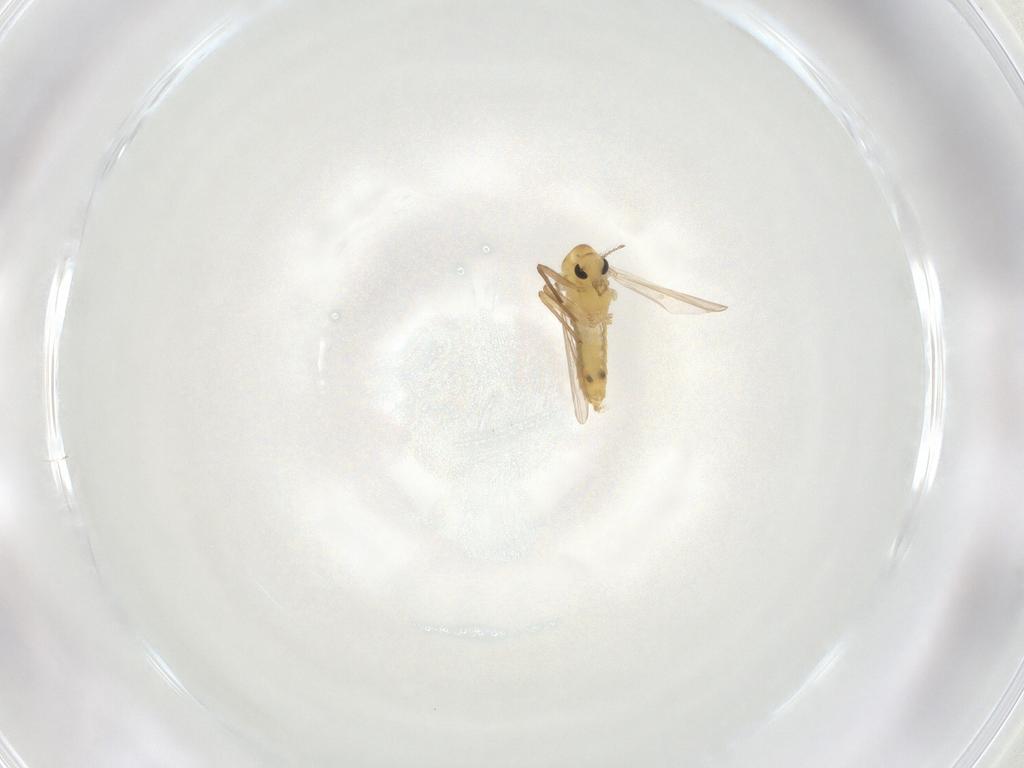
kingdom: Animalia
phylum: Arthropoda
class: Insecta
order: Diptera
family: Chironomidae
